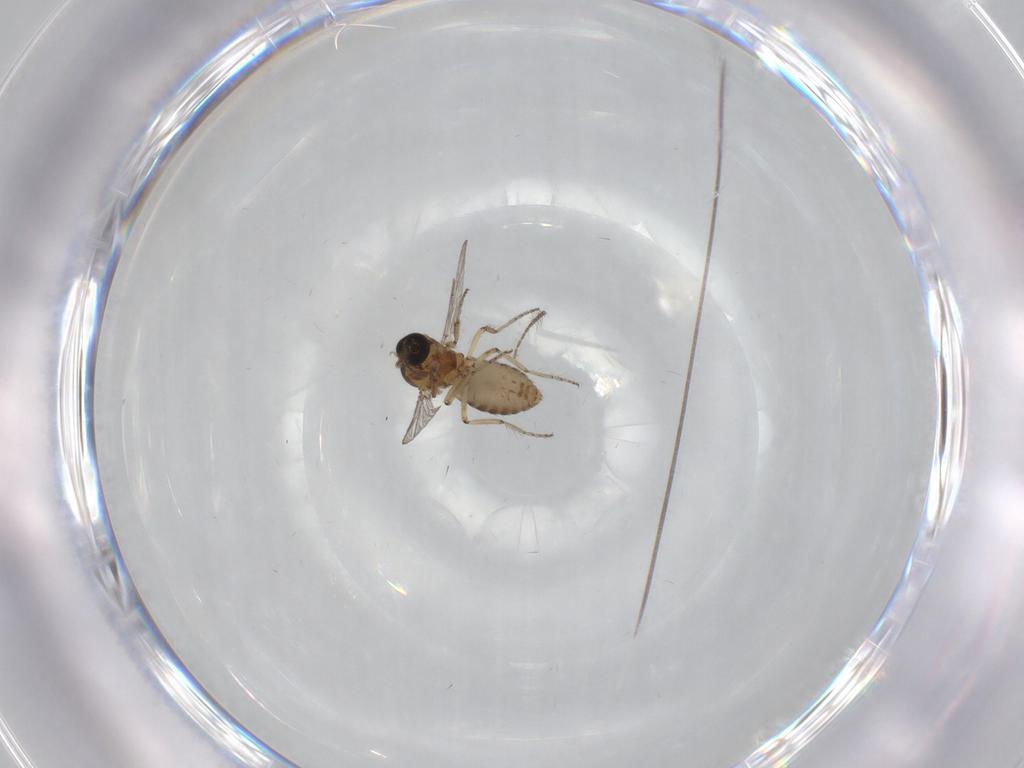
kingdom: Animalia
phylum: Arthropoda
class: Insecta
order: Diptera
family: Ceratopogonidae
